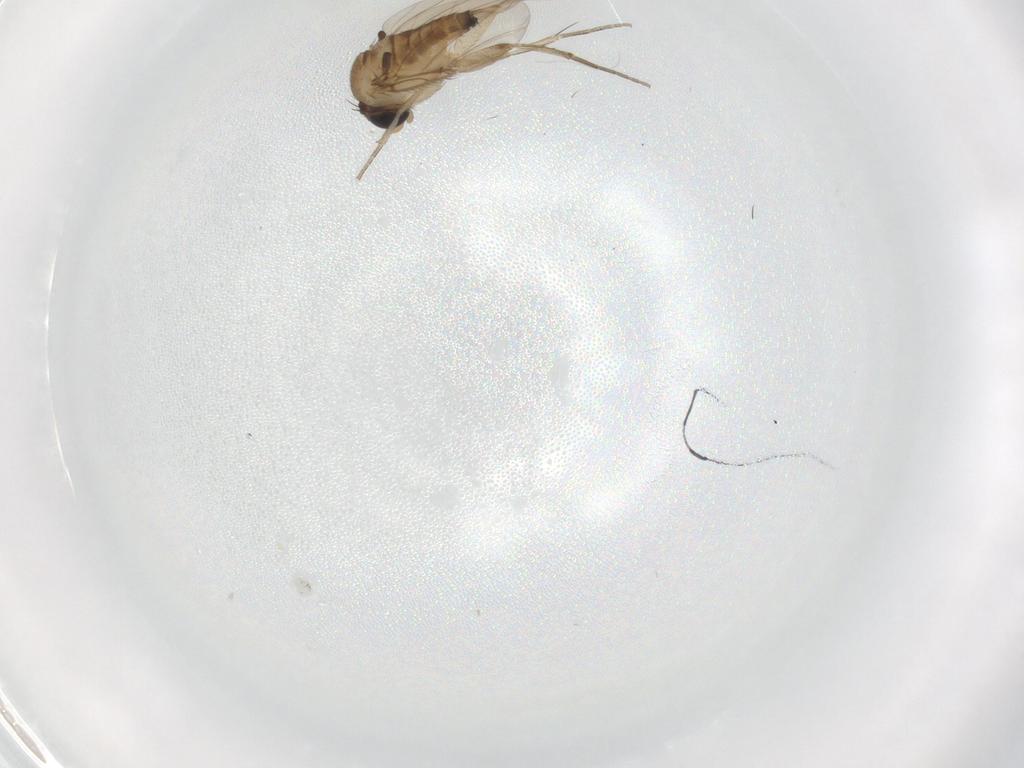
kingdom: Animalia
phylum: Arthropoda
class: Insecta
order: Diptera
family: Phoridae
